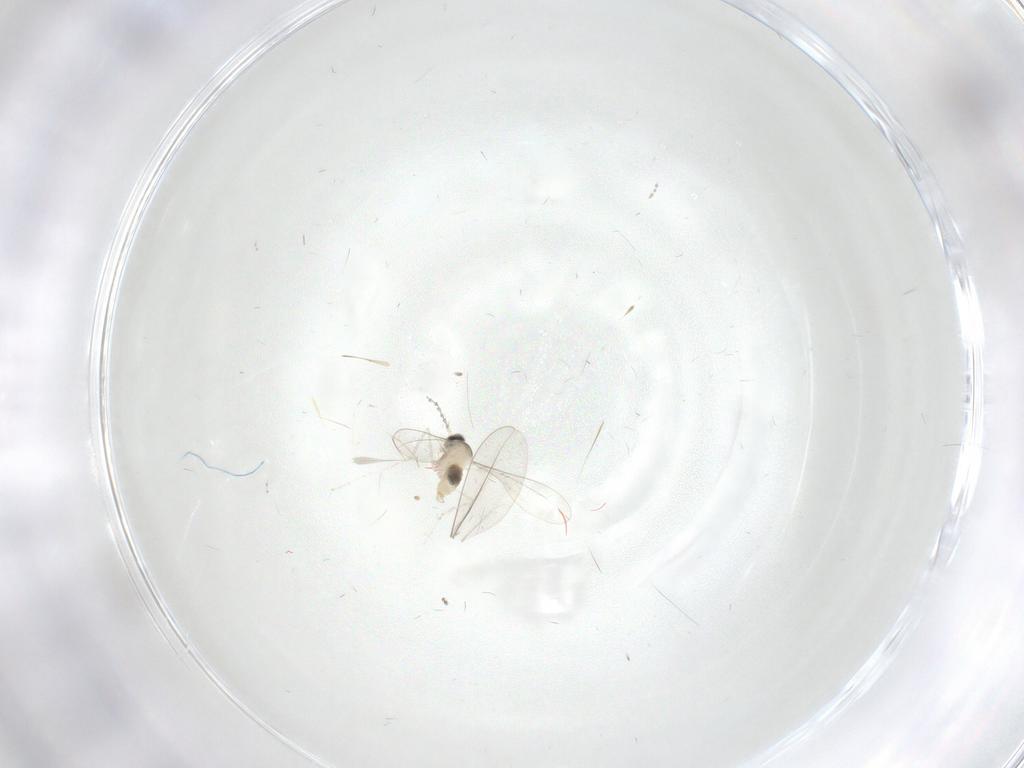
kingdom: Animalia
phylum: Arthropoda
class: Insecta
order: Diptera
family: Cecidomyiidae
